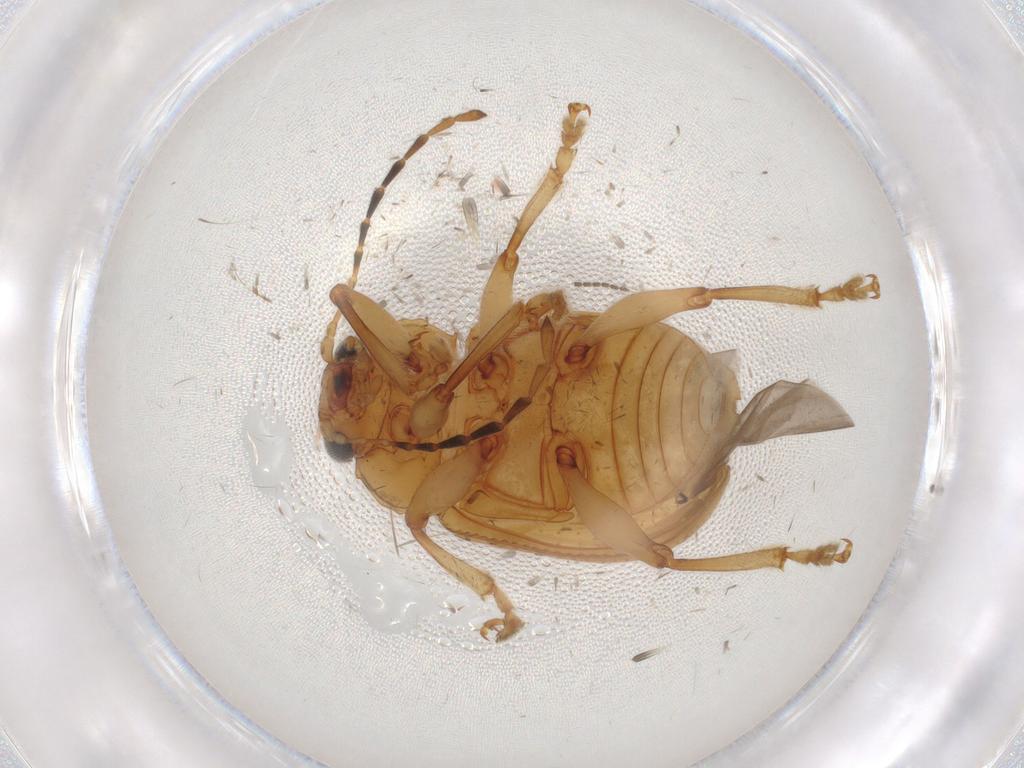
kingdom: Animalia
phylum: Arthropoda
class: Insecta
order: Coleoptera
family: Chrysomelidae
